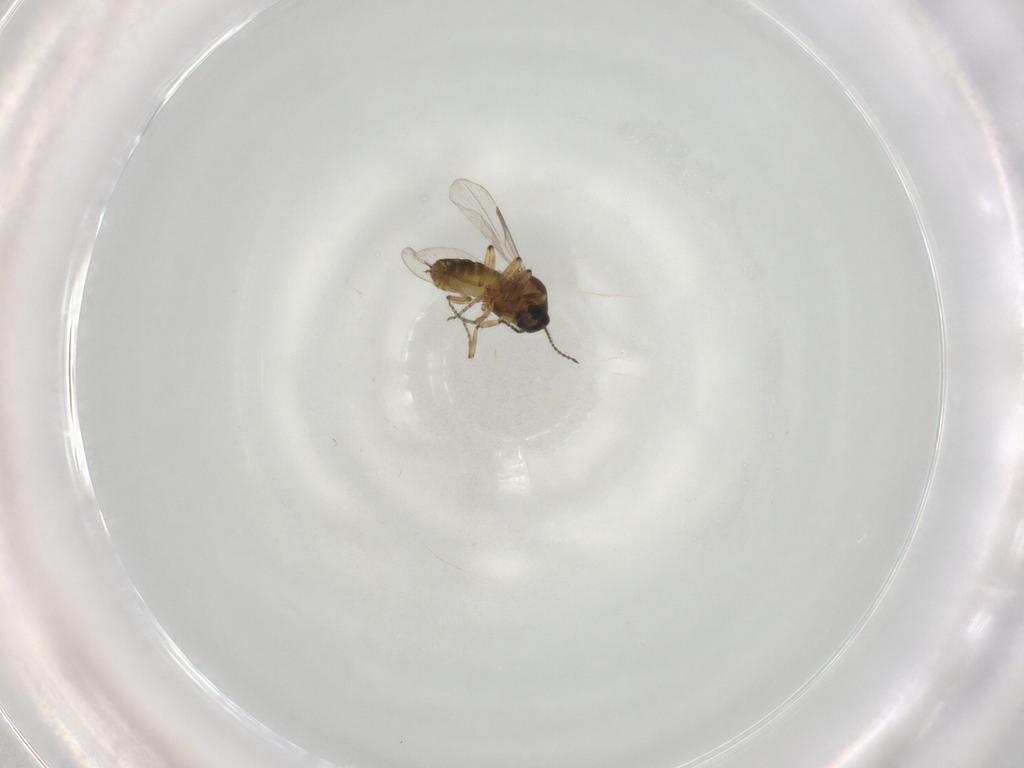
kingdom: Animalia
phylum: Arthropoda
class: Insecta
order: Diptera
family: Ceratopogonidae
